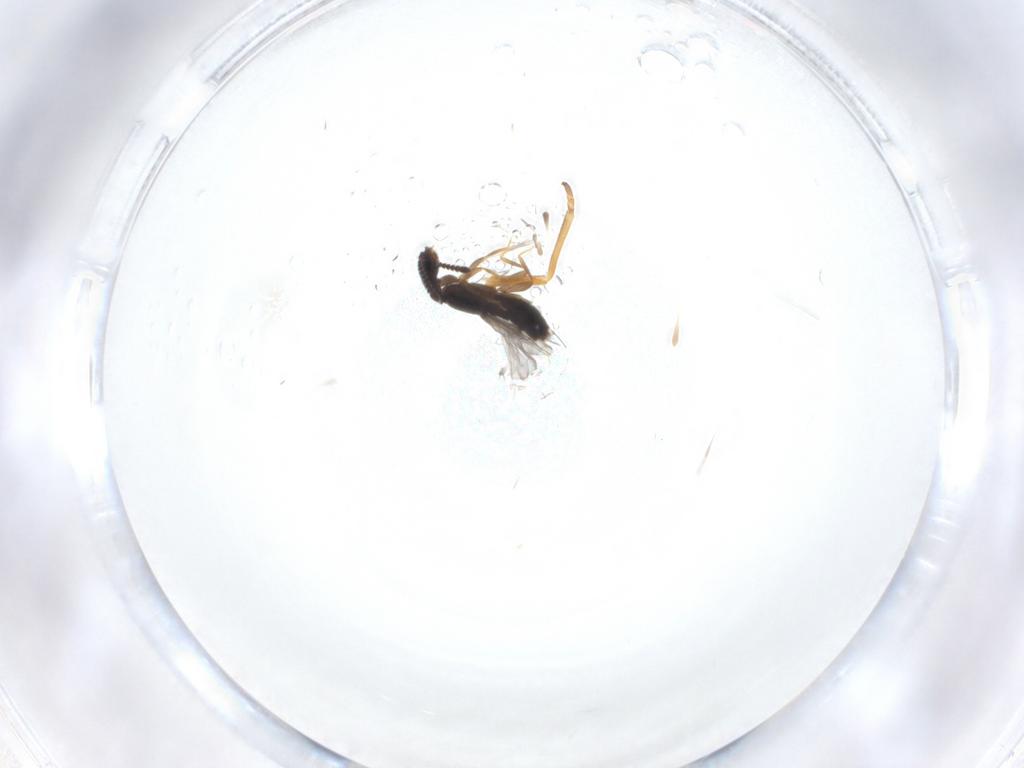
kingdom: Animalia
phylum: Arthropoda
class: Insecta
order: Coleoptera
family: Staphylinidae
